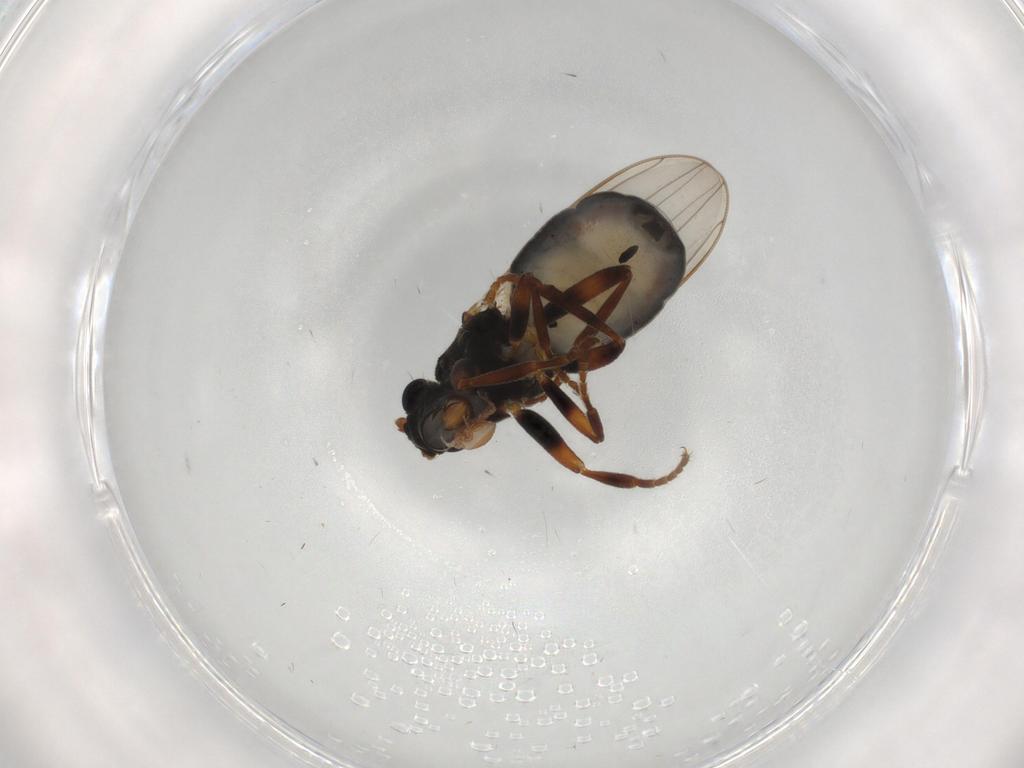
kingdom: Animalia
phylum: Arthropoda
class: Insecta
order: Diptera
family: Sphaeroceridae
